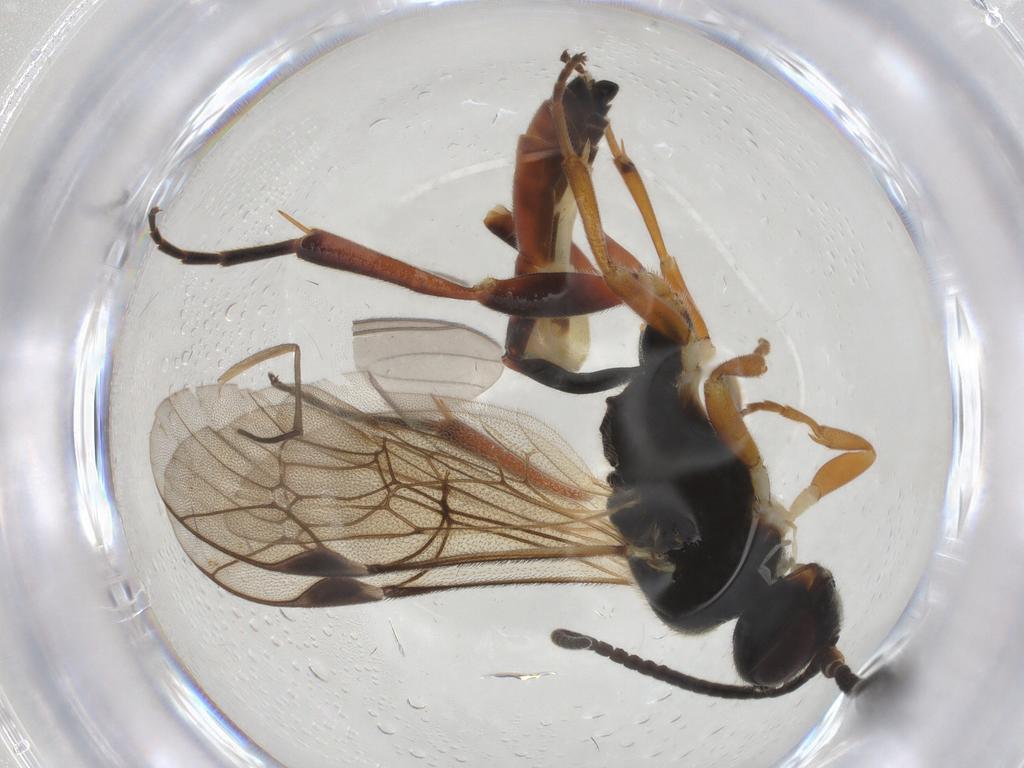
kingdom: Animalia
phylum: Arthropoda
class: Insecta
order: Hymenoptera
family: Ichneumonidae
